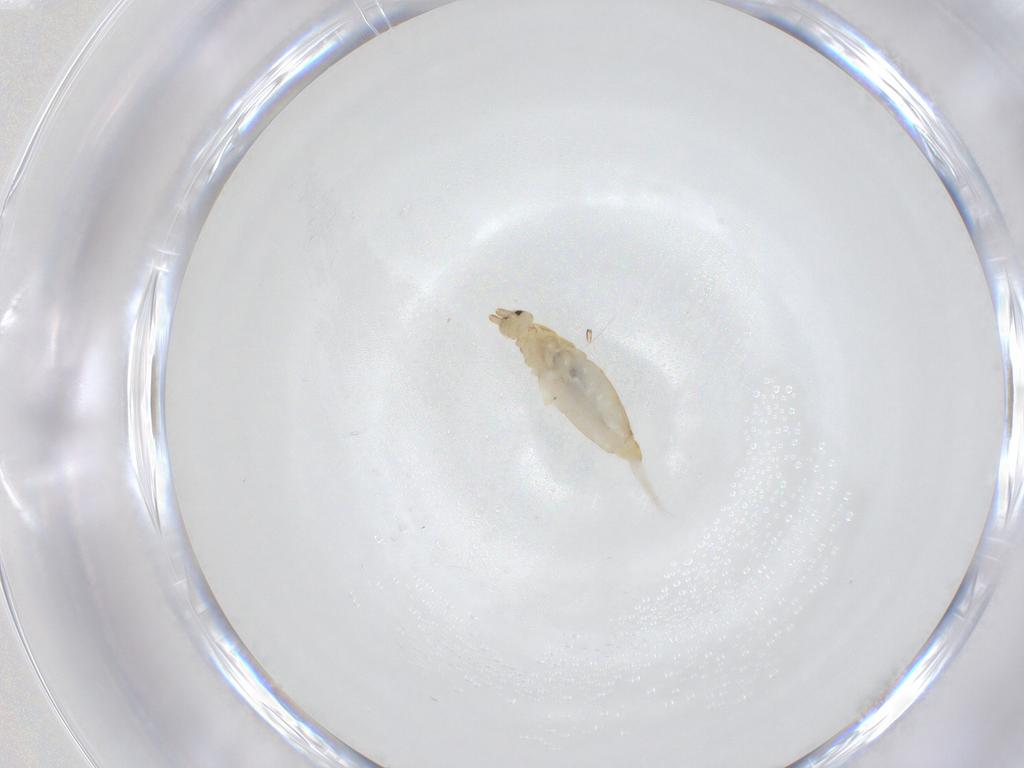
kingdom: Animalia
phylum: Arthropoda
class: Collembola
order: Entomobryomorpha
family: Entomobryidae
